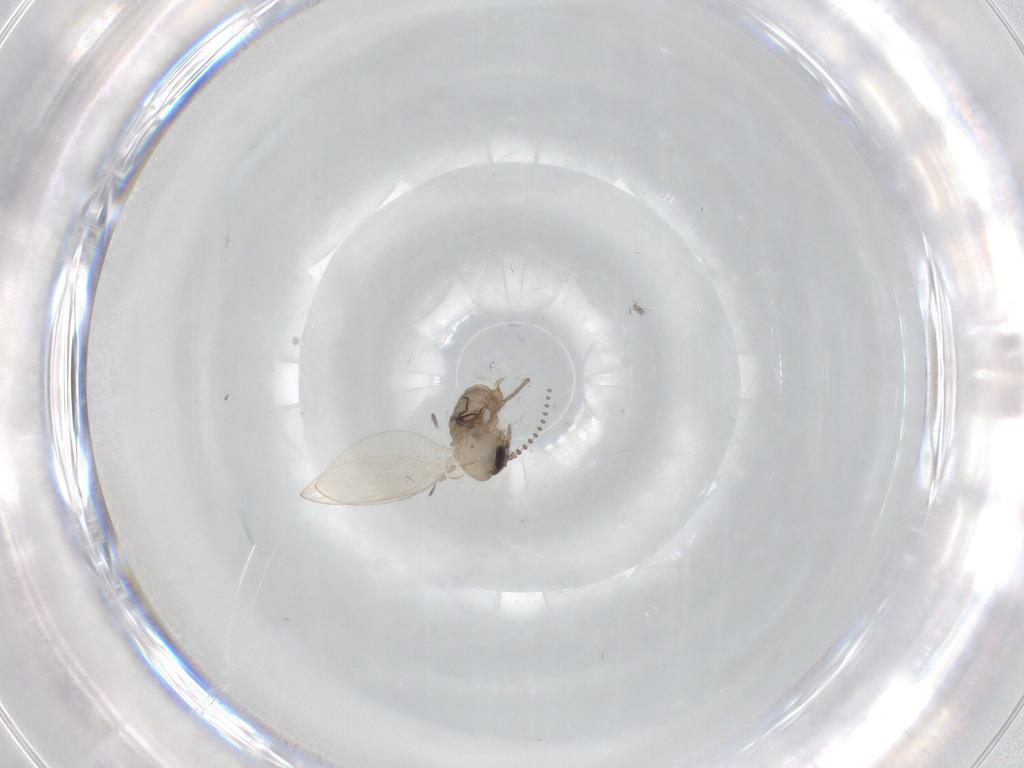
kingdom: Animalia
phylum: Arthropoda
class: Insecta
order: Diptera
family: Psychodidae
